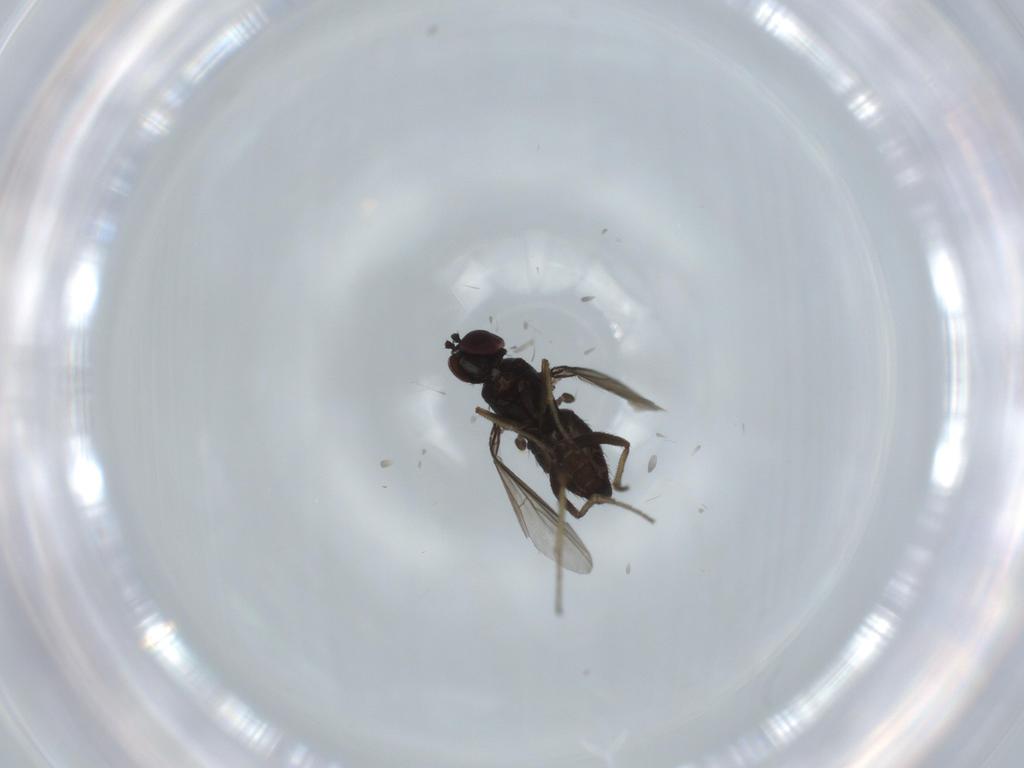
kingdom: Animalia
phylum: Arthropoda
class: Insecta
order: Diptera
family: Dolichopodidae
